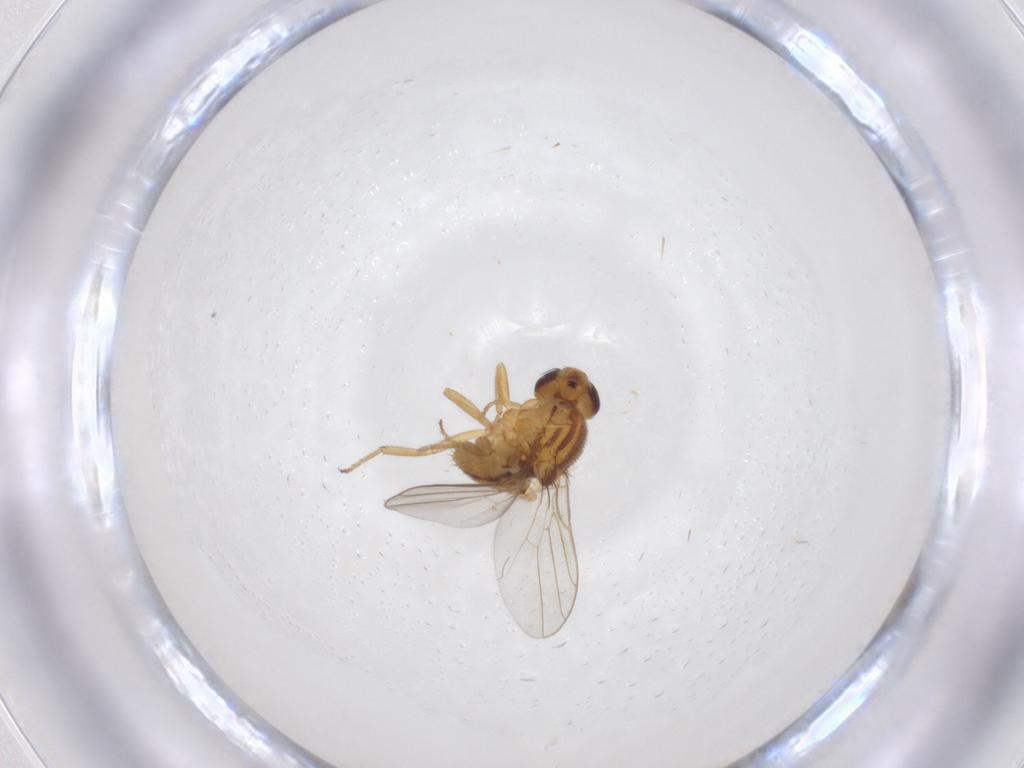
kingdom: Animalia
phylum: Arthropoda
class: Insecta
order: Diptera
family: Chloropidae
